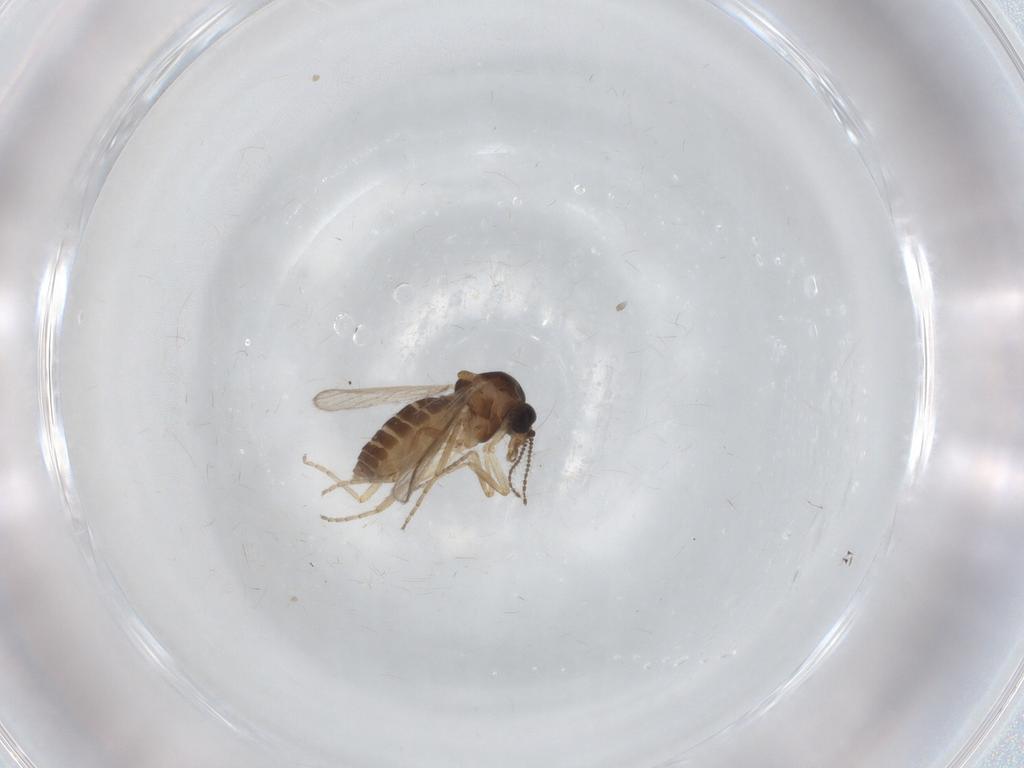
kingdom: Animalia
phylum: Arthropoda
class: Insecta
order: Diptera
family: Ceratopogonidae
